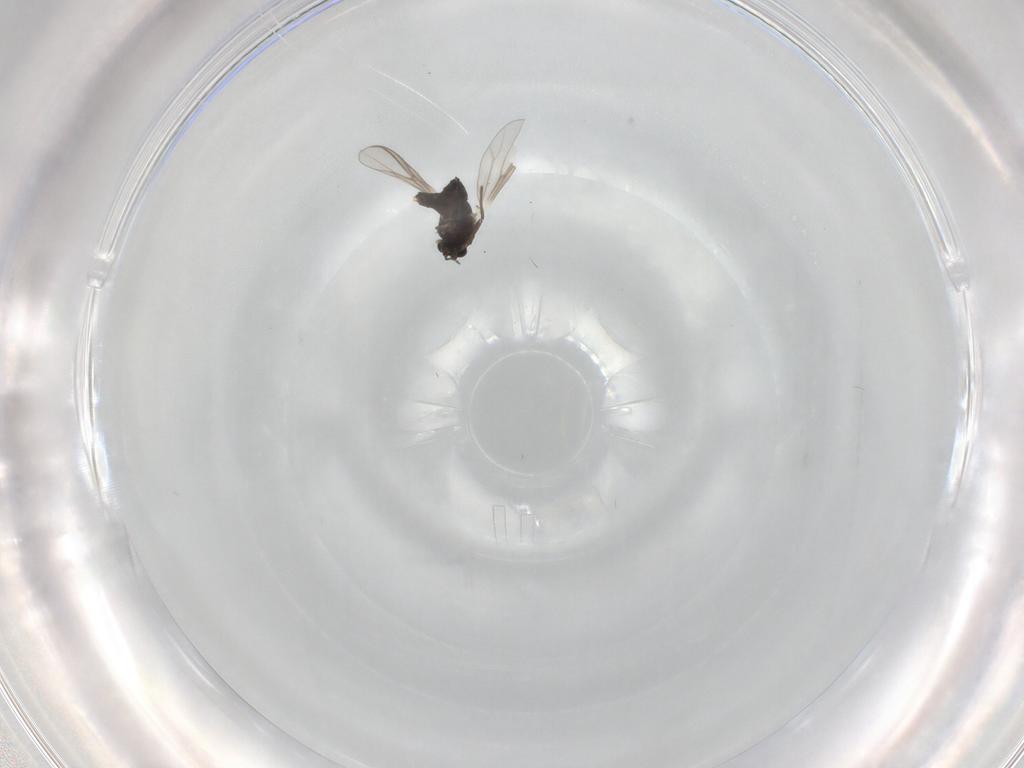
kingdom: Animalia
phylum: Arthropoda
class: Insecta
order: Diptera
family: Chironomidae
